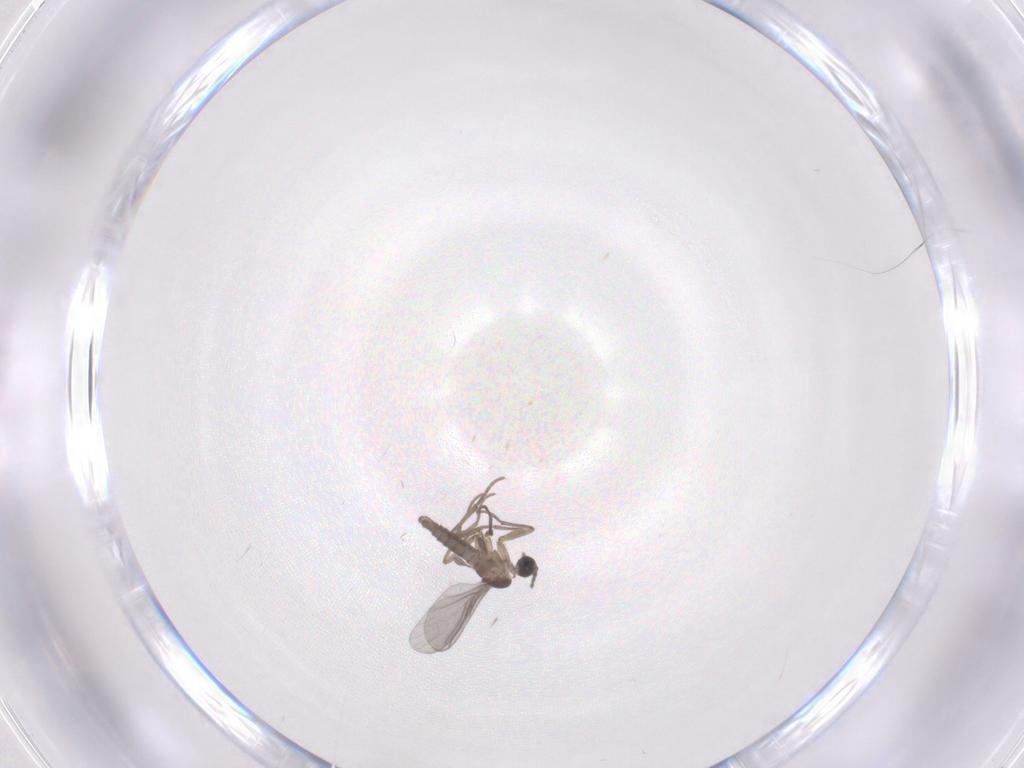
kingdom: Animalia
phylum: Arthropoda
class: Insecta
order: Diptera
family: Sciaridae
